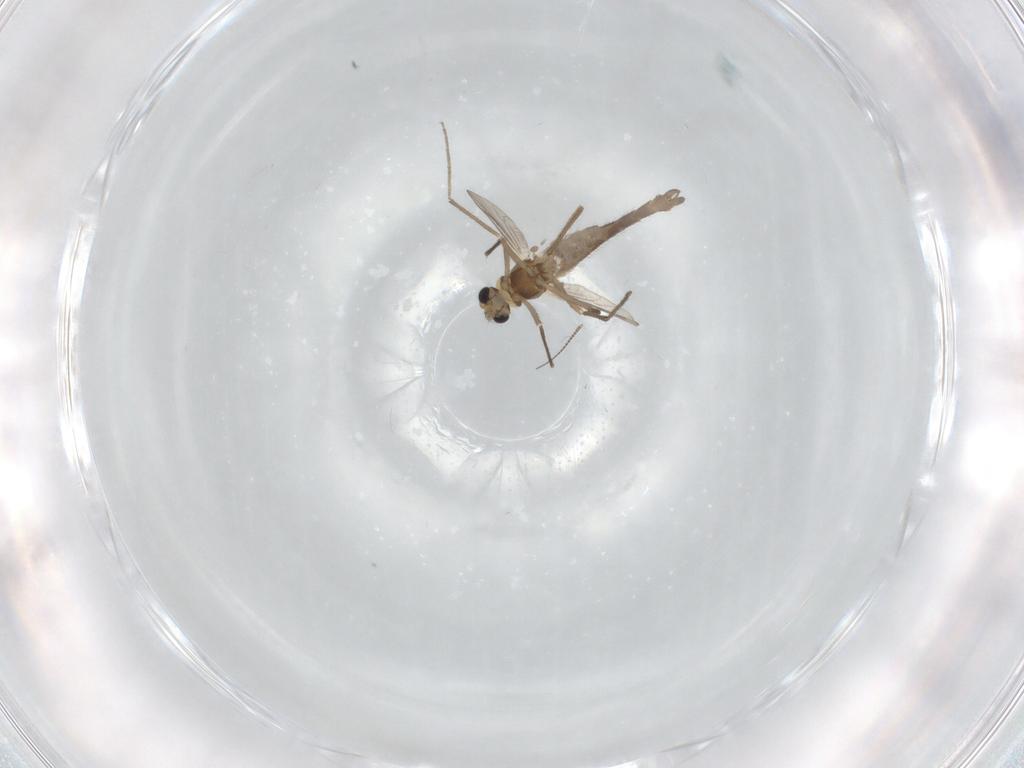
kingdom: Animalia
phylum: Arthropoda
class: Insecta
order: Diptera
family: Chironomidae
